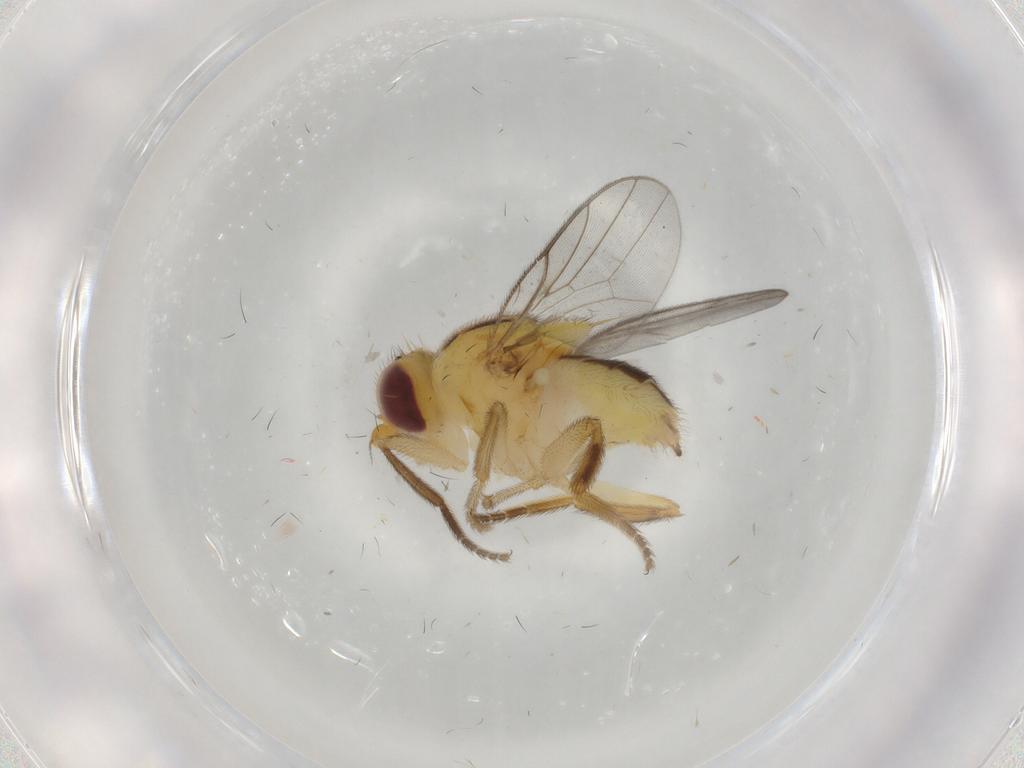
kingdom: Animalia
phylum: Arthropoda
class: Insecta
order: Diptera
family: Chloropidae
